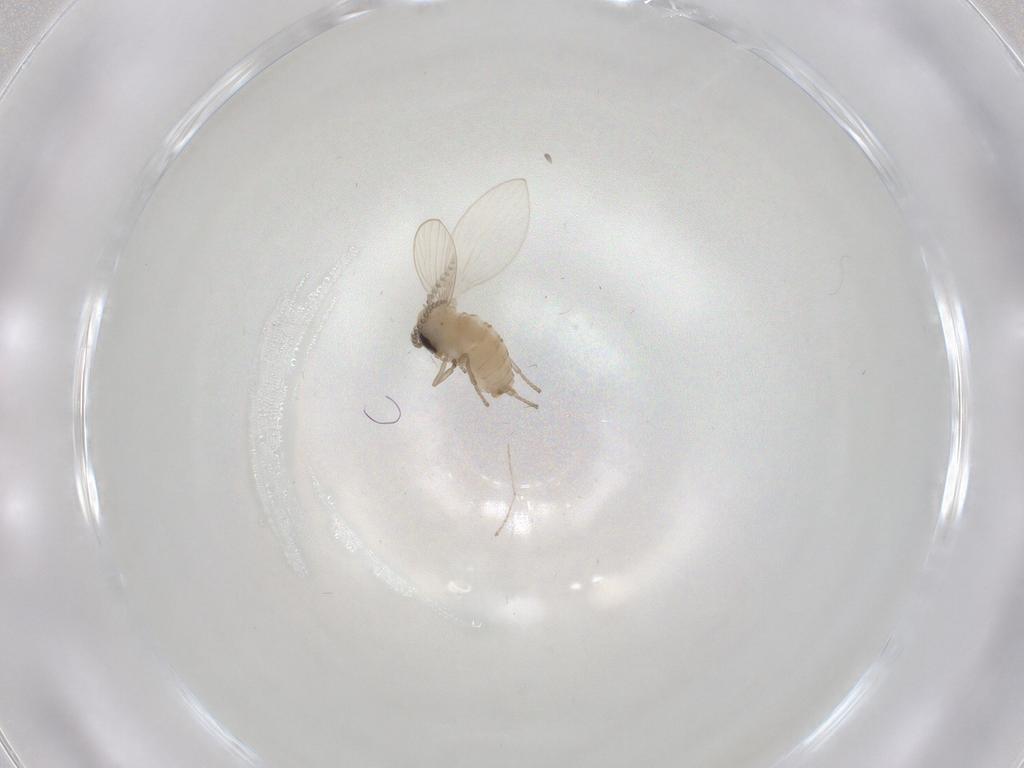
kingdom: Animalia
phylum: Arthropoda
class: Insecta
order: Diptera
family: Psychodidae
